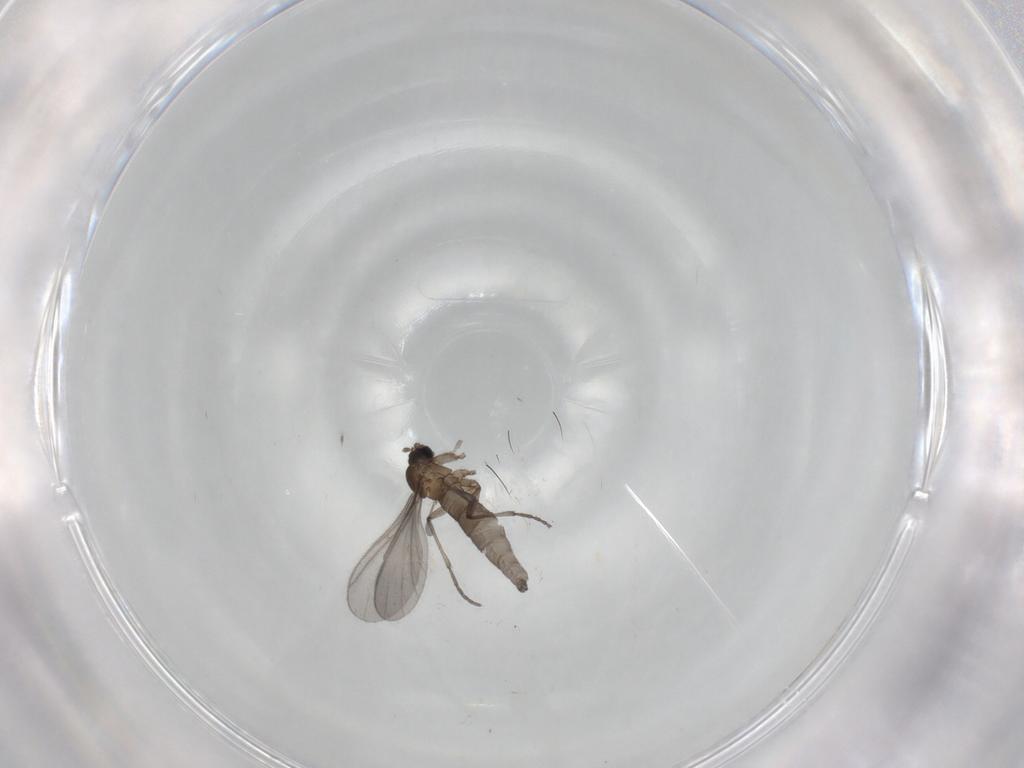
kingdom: Animalia
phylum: Arthropoda
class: Insecta
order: Diptera
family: Sciaridae
